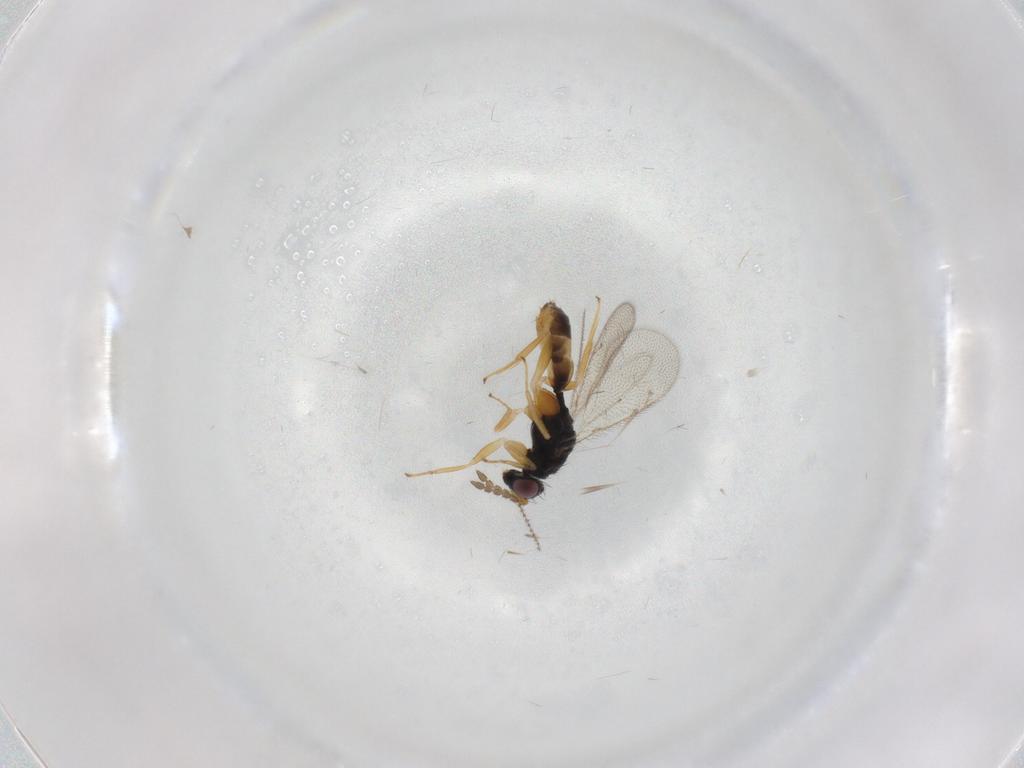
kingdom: Animalia
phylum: Arthropoda
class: Insecta
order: Hymenoptera
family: Eulophidae
